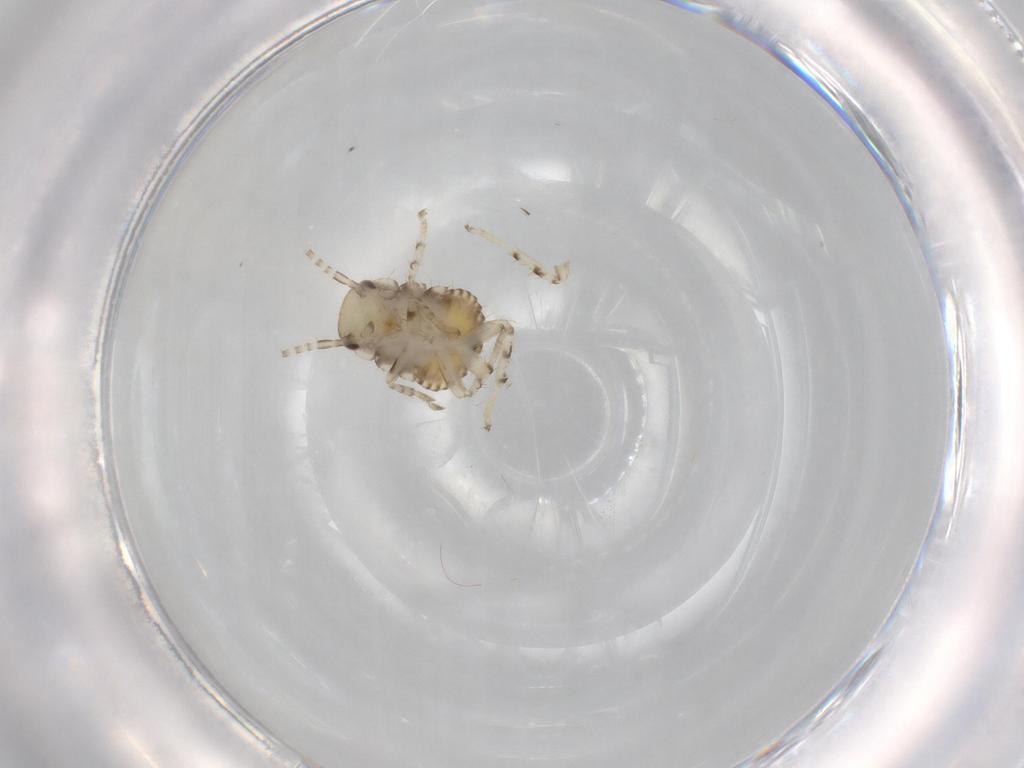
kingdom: Animalia
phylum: Arthropoda
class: Insecta
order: Blattodea
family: Ectobiidae
